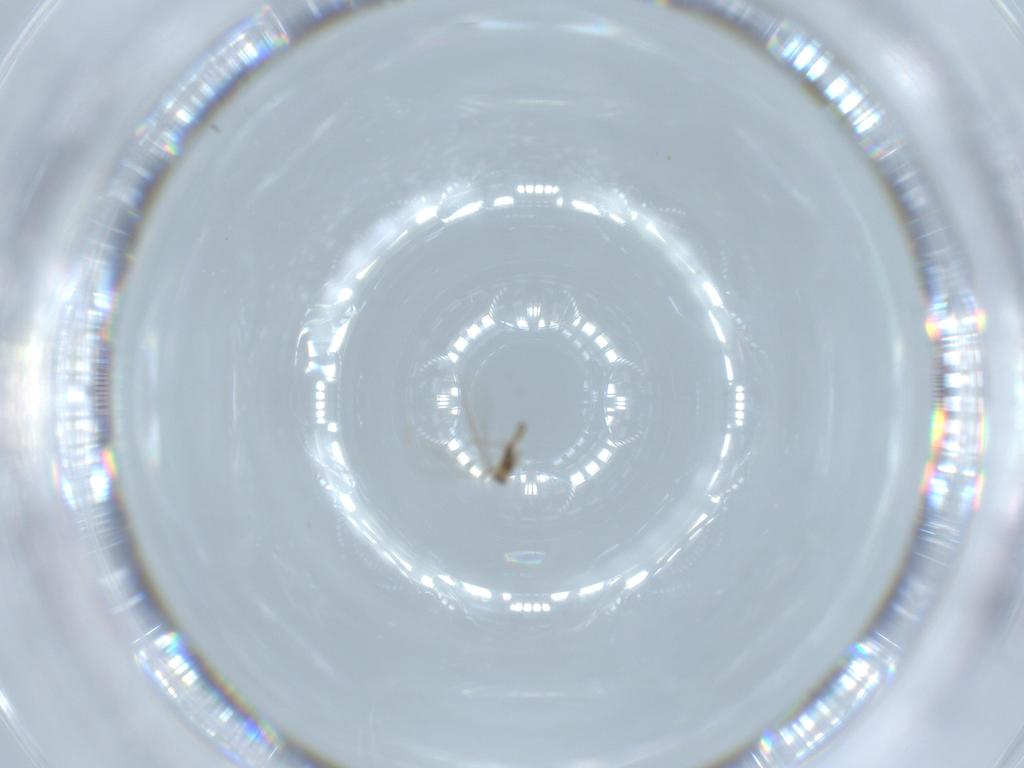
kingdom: Animalia
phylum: Arthropoda
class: Insecta
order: Diptera
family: Cecidomyiidae
